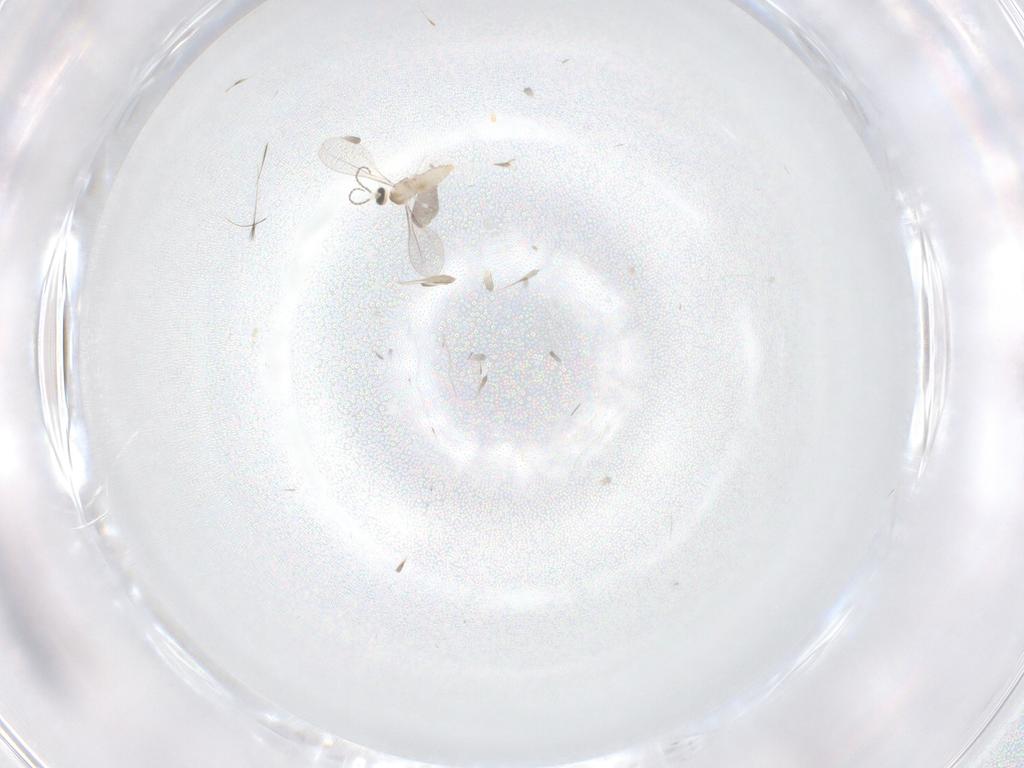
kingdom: Animalia
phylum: Arthropoda
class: Insecta
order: Diptera
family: Cecidomyiidae
